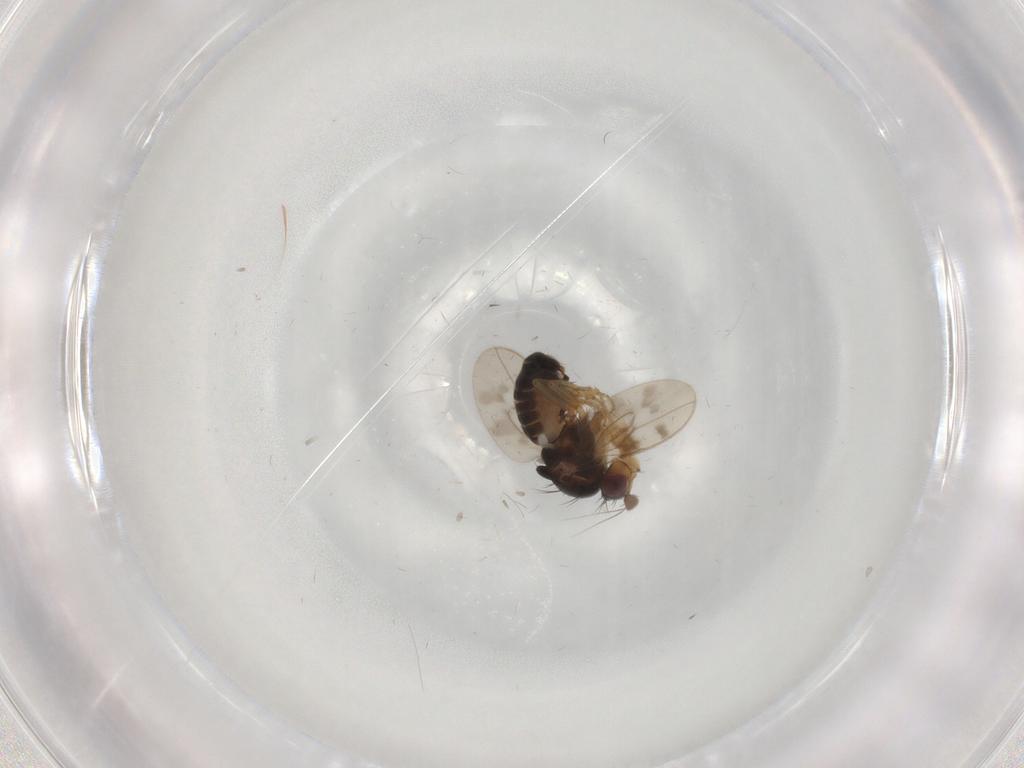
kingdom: Animalia
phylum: Arthropoda
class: Insecta
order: Diptera
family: Sphaeroceridae
